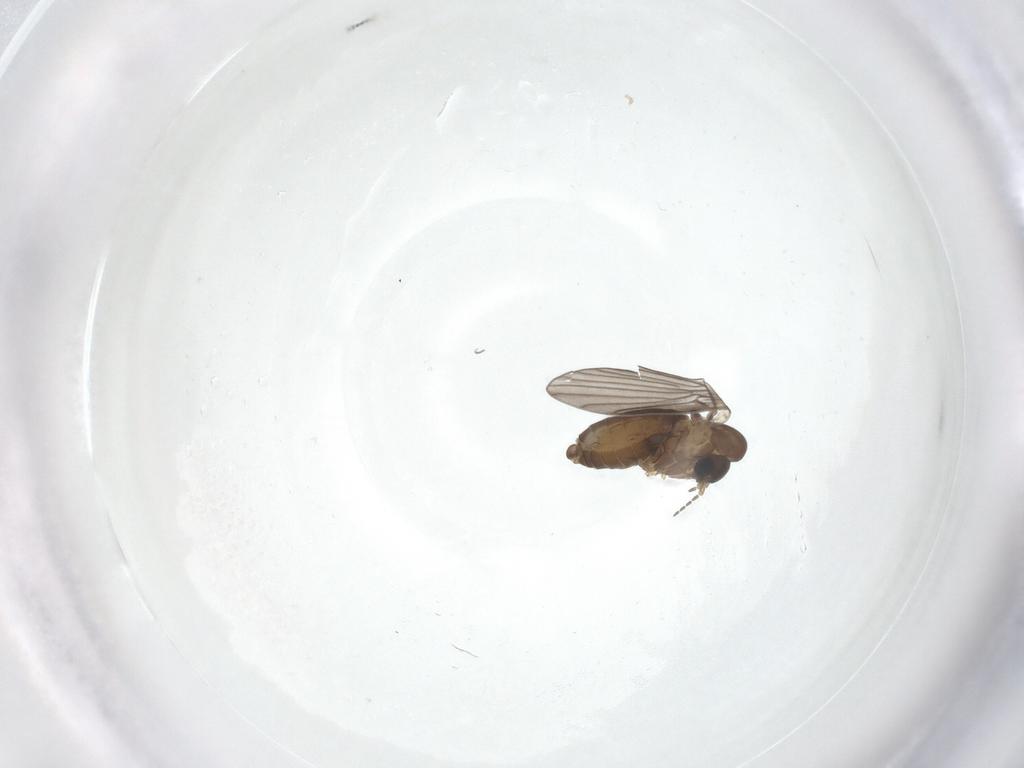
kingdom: Animalia
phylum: Arthropoda
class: Insecta
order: Diptera
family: Psychodidae
